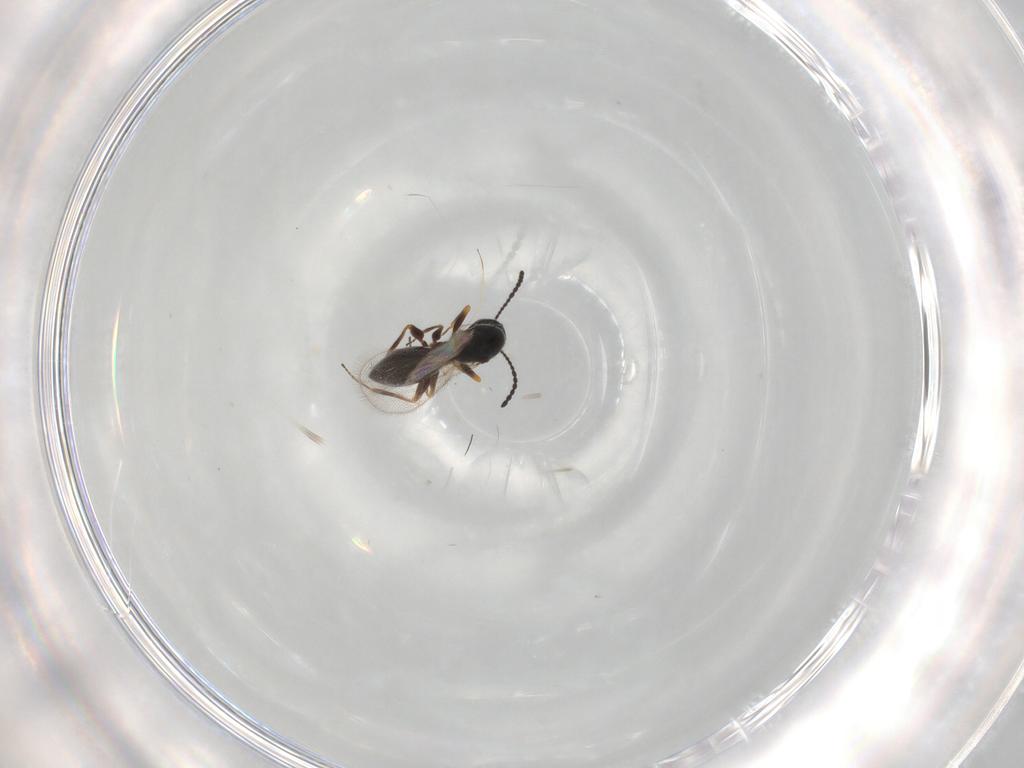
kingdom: Animalia
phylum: Arthropoda
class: Insecta
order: Hymenoptera
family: Figitidae
